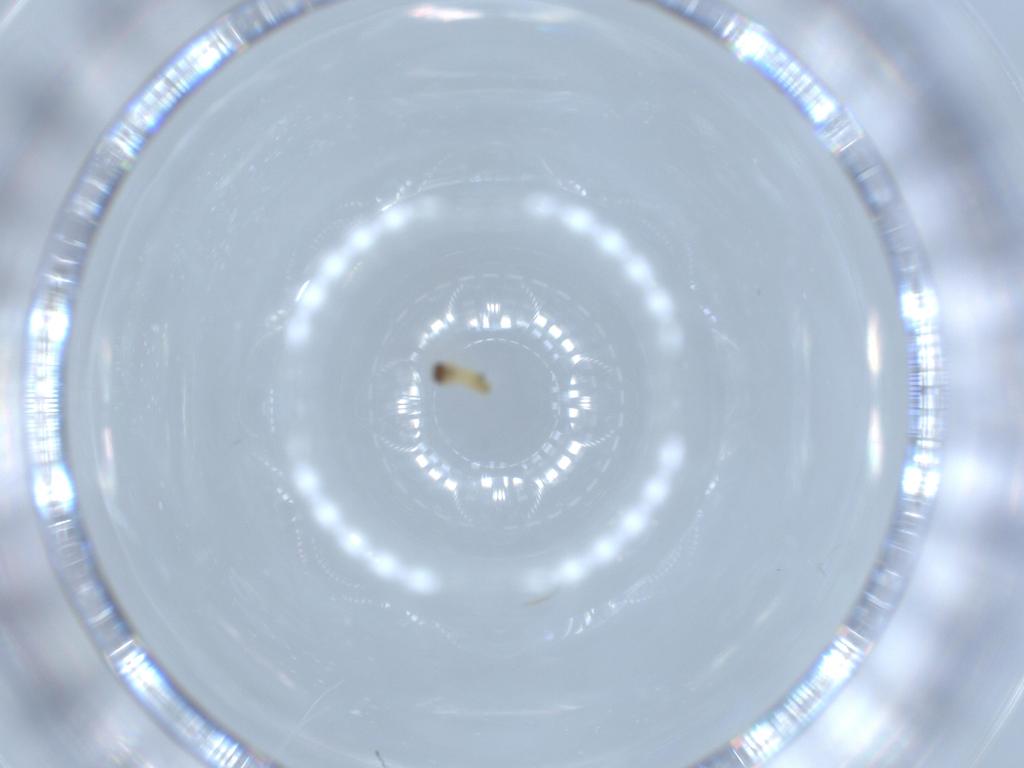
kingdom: Animalia
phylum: Arthropoda
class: Insecta
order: Lepidoptera
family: Gracillariidae
